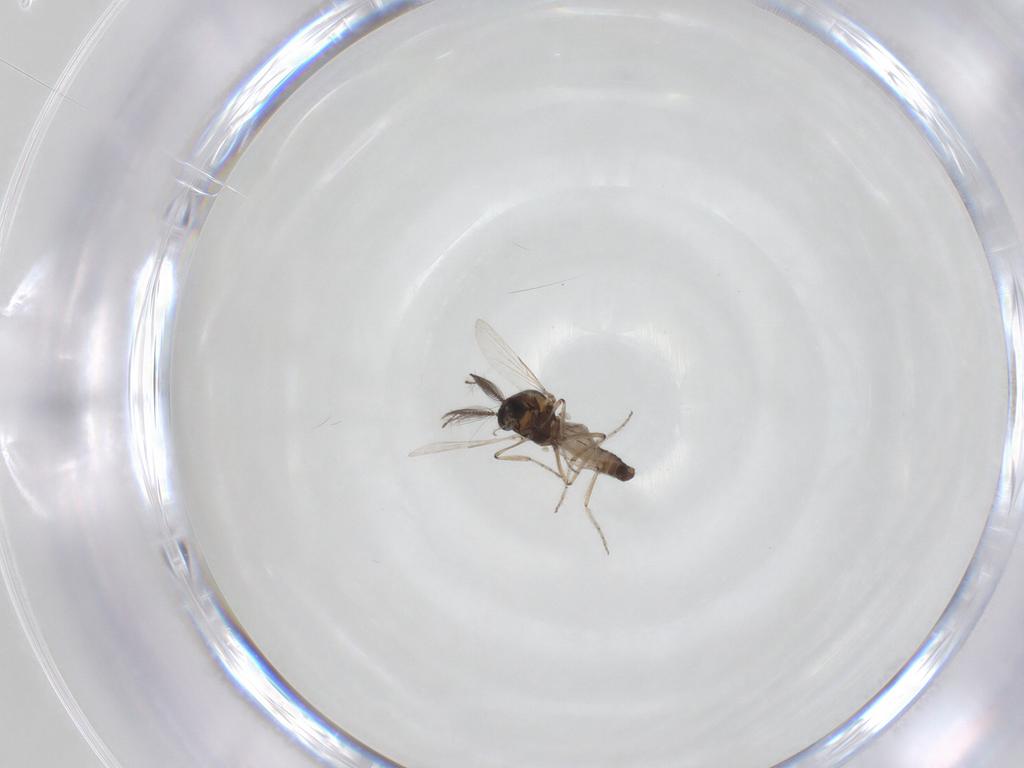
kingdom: Animalia
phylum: Arthropoda
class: Insecta
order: Diptera
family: Ceratopogonidae
